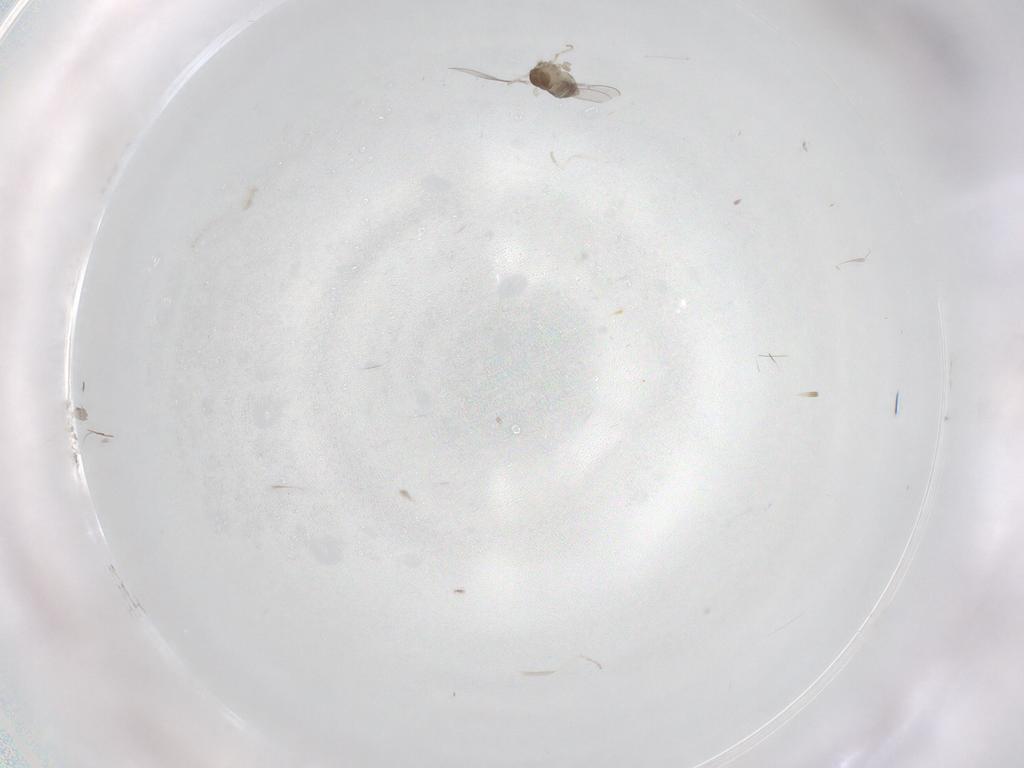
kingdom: Animalia
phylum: Arthropoda
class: Insecta
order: Diptera
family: Cecidomyiidae
